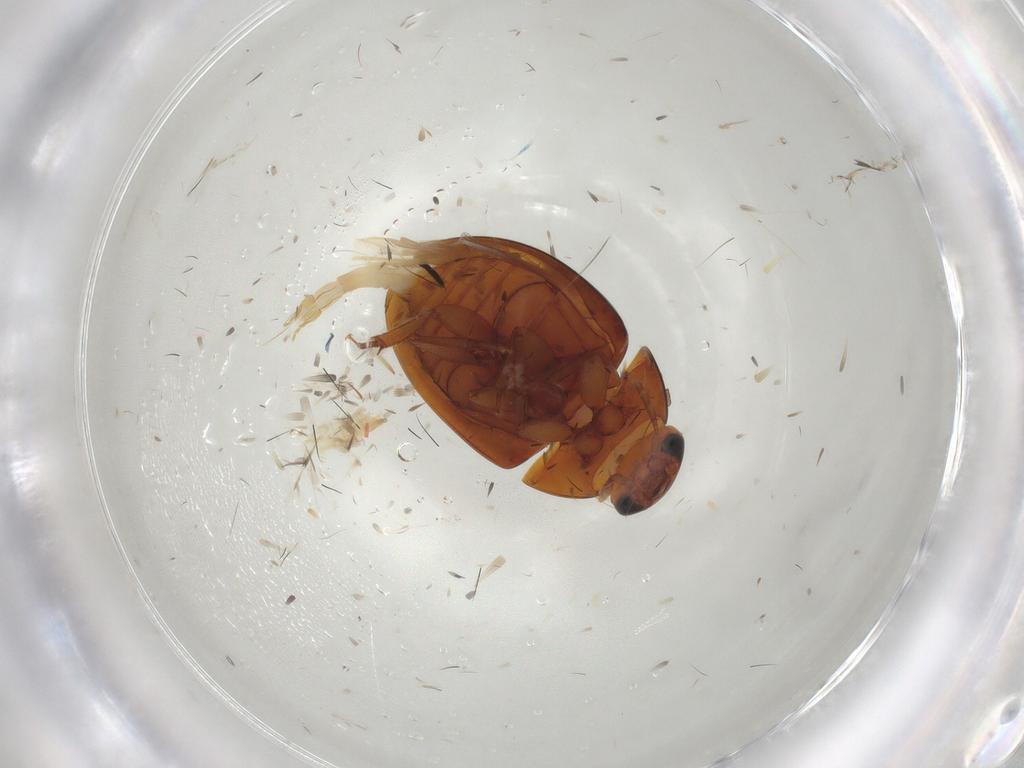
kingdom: Animalia
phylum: Arthropoda
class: Insecta
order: Coleoptera
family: Phalacridae
